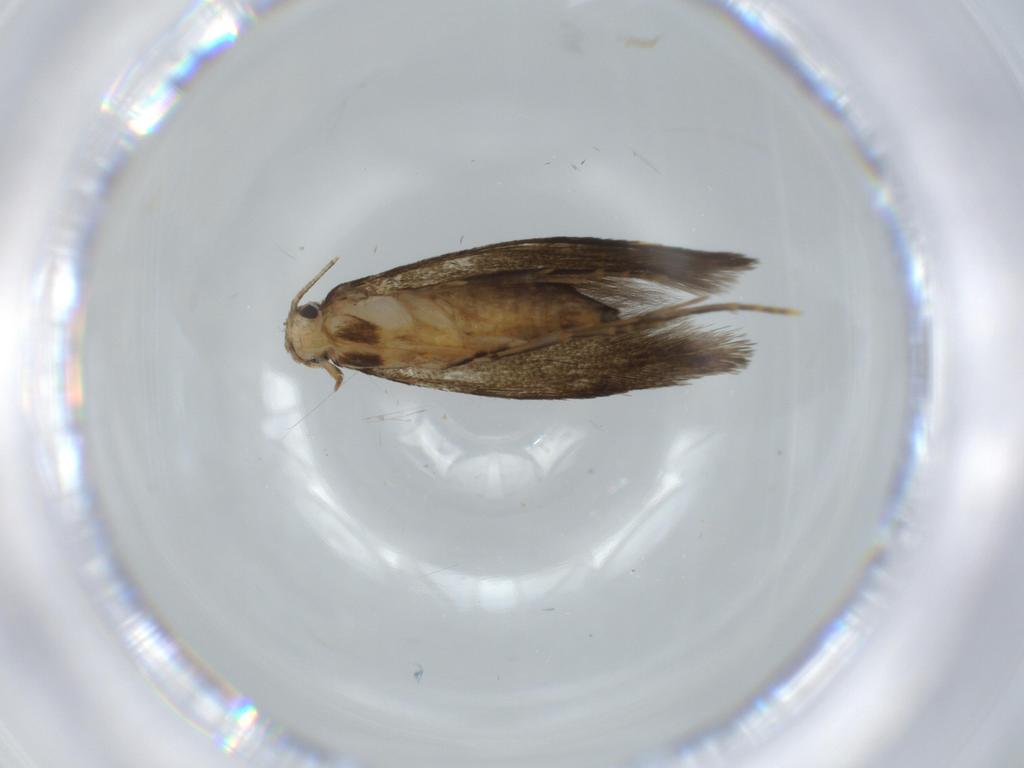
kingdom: Animalia
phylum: Arthropoda
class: Insecta
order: Lepidoptera
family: Tineidae
